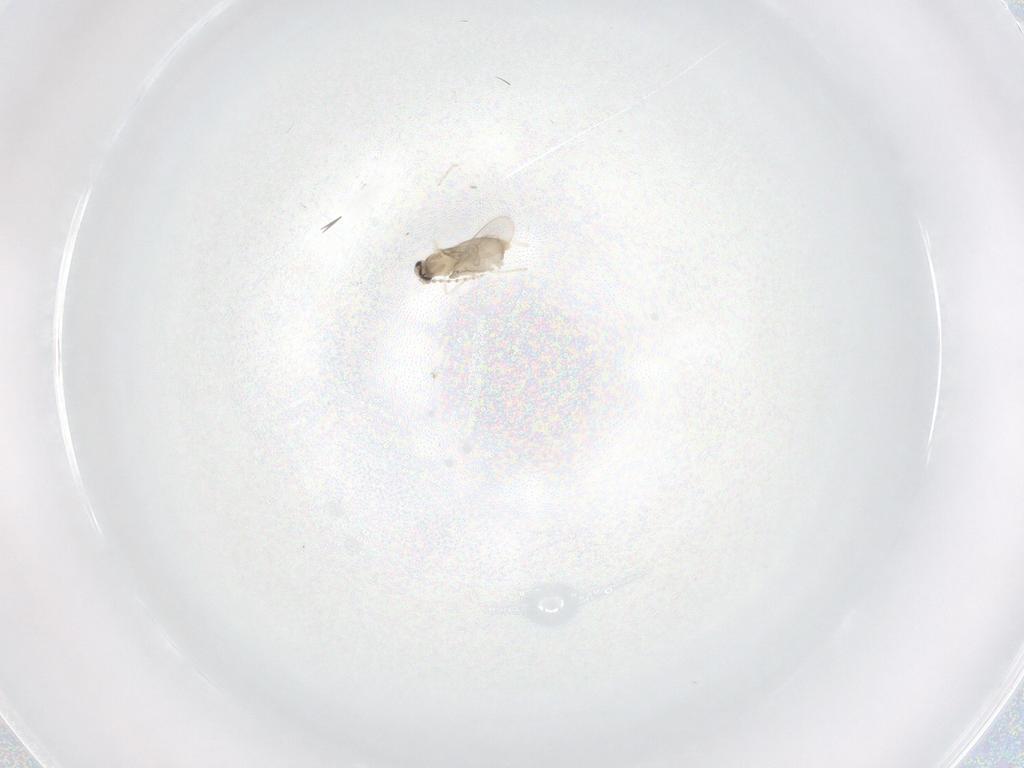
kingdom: Animalia
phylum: Arthropoda
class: Insecta
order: Diptera
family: Cecidomyiidae
